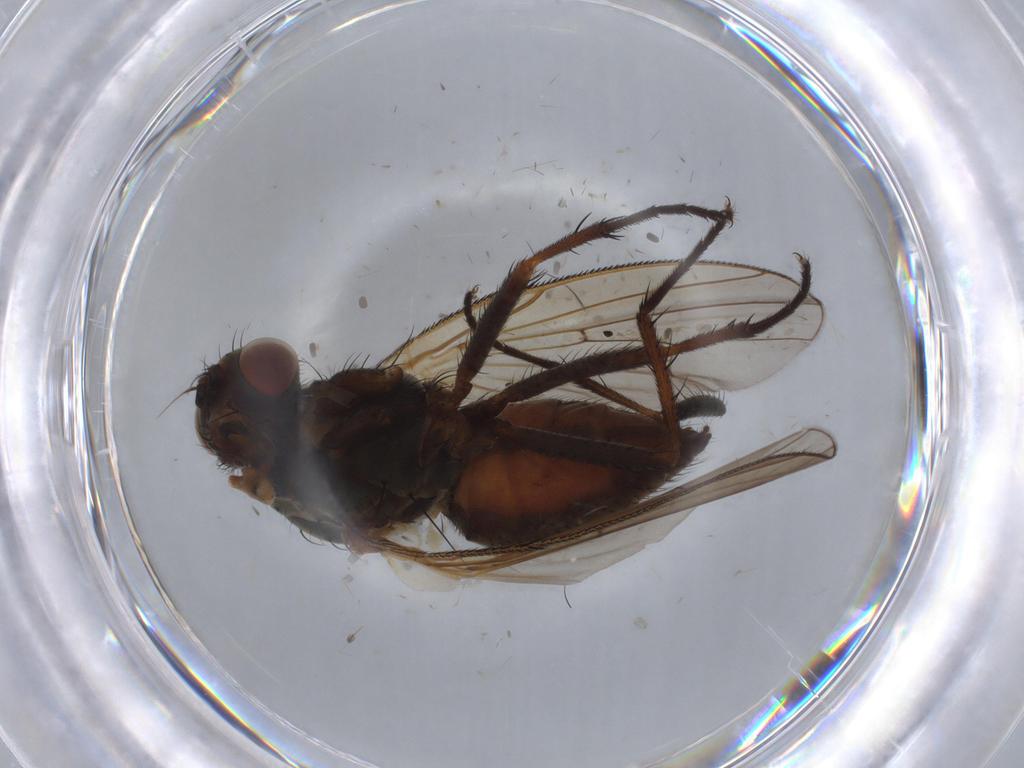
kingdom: Animalia
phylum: Arthropoda
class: Insecta
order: Diptera
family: Anthomyiidae
